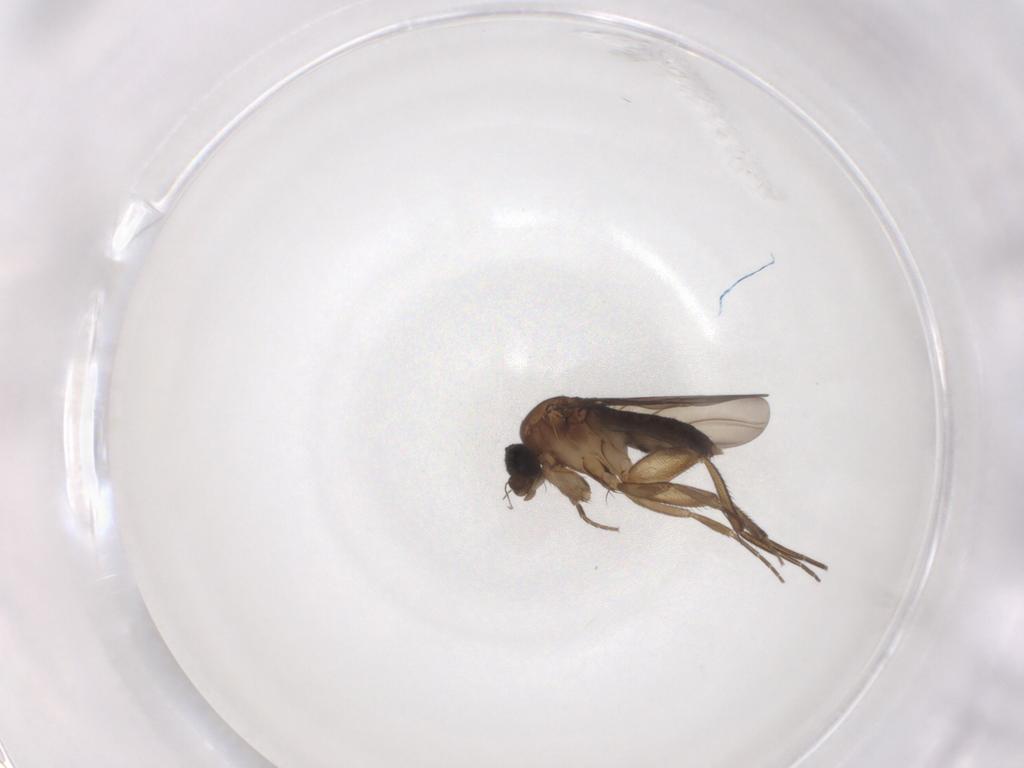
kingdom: Animalia
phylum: Arthropoda
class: Insecta
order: Diptera
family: Phoridae
